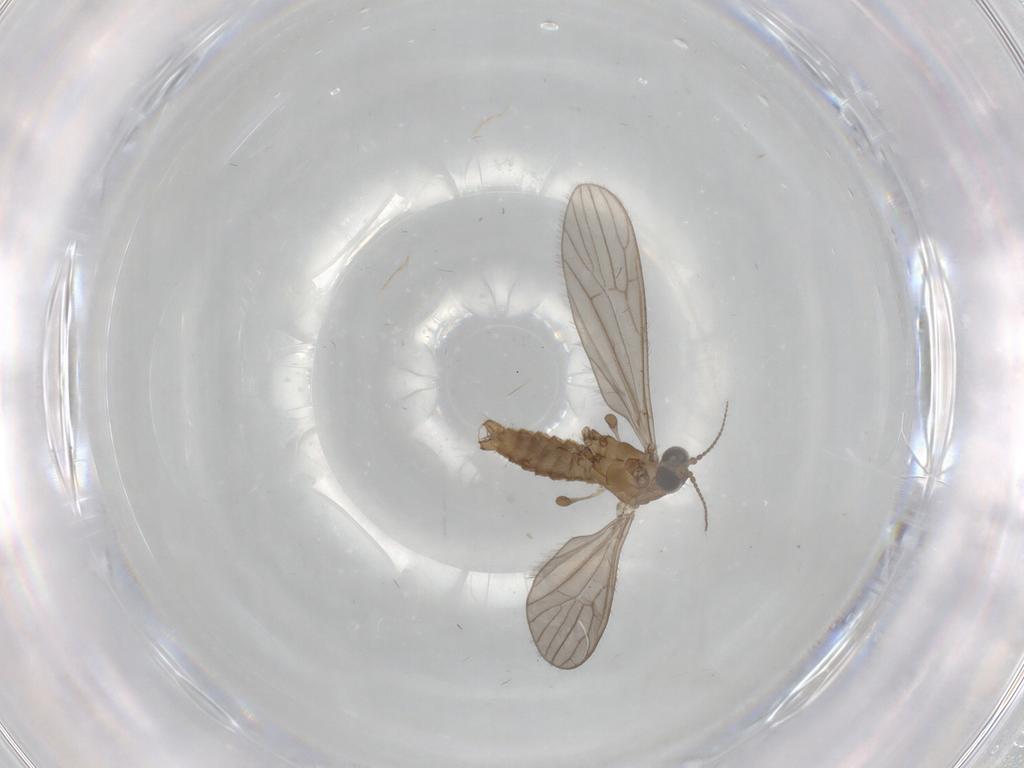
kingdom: Animalia
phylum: Arthropoda
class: Insecta
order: Diptera
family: Limoniidae
